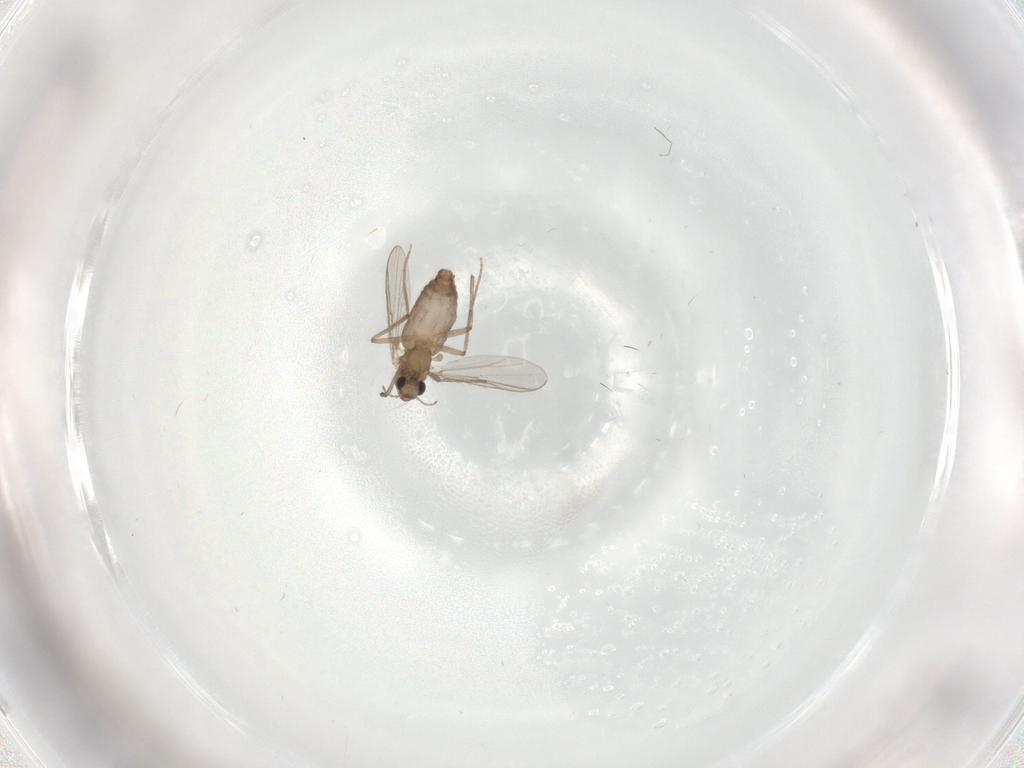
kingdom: Animalia
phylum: Arthropoda
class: Insecta
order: Diptera
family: Chironomidae
